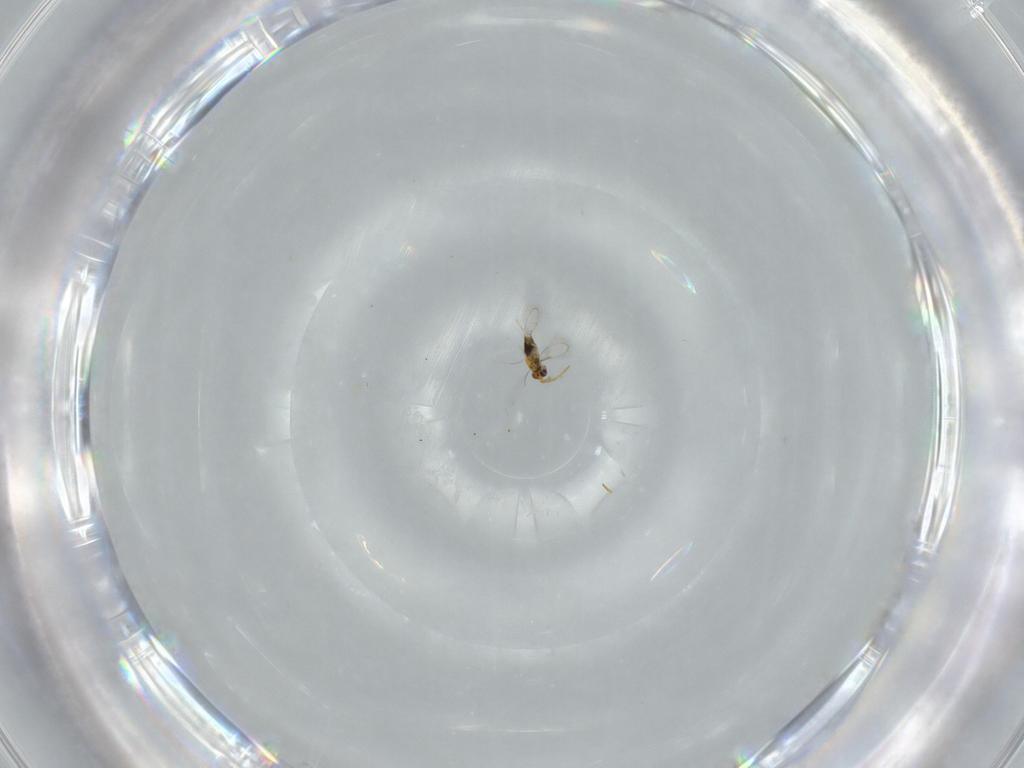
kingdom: Animalia
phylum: Arthropoda
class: Insecta
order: Hymenoptera
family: Aphelinidae
